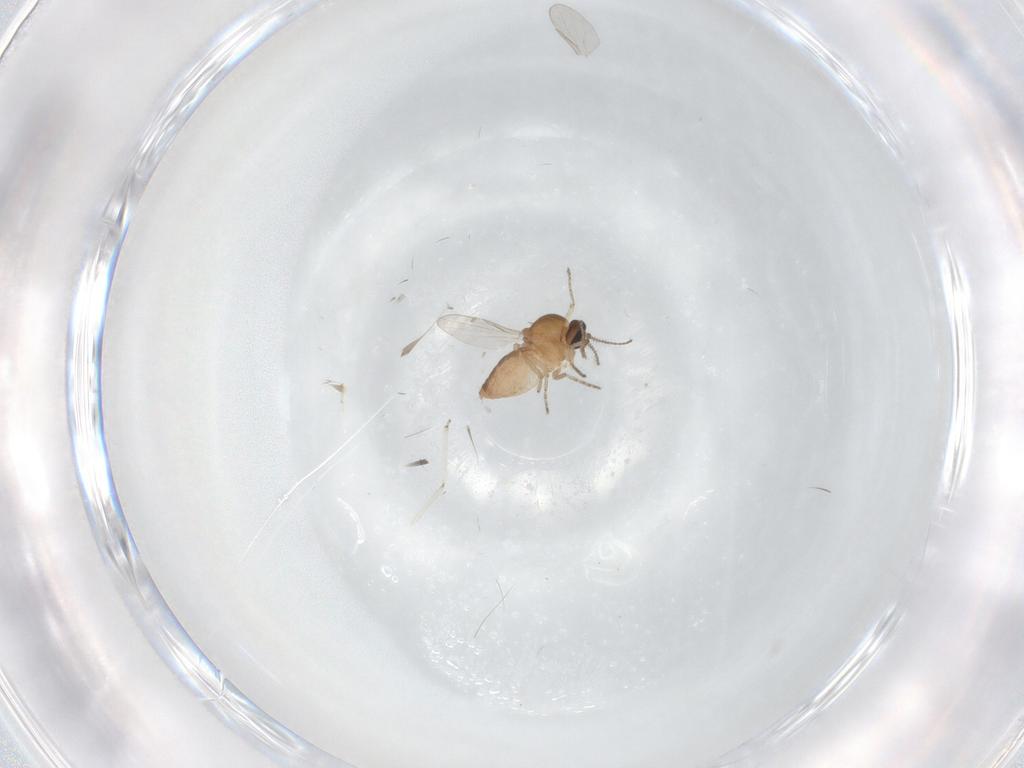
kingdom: Animalia
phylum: Arthropoda
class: Insecta
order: Diptera
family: Ceratopogonidae
